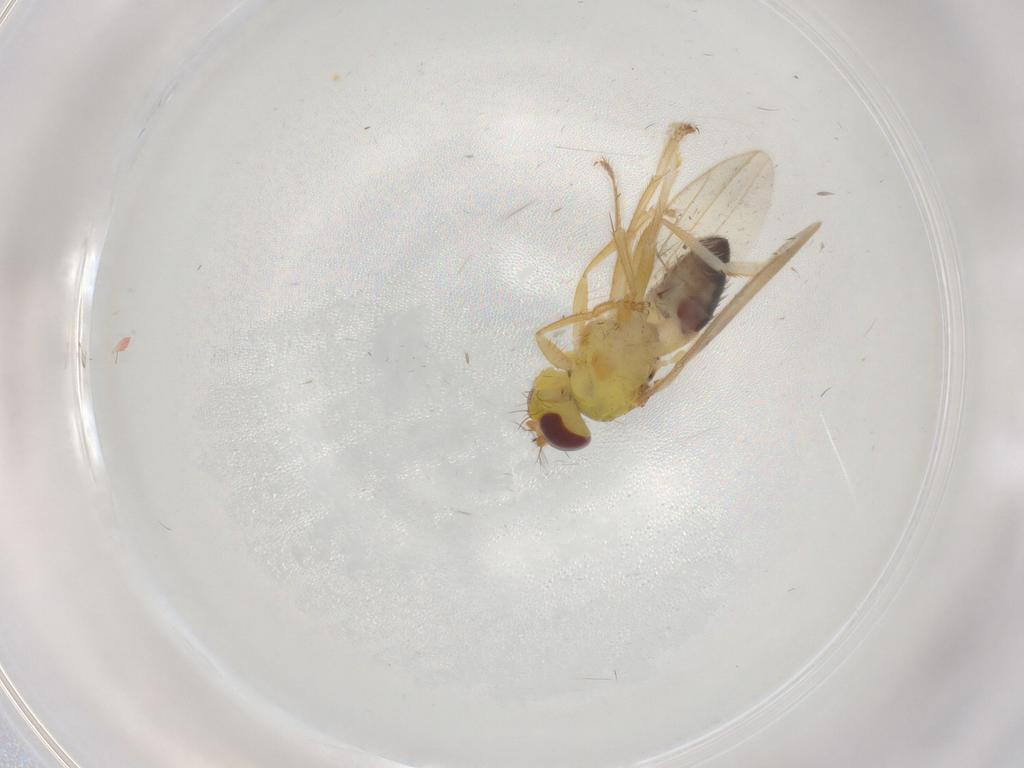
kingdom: Animalia
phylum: Arthropoda
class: Insecta
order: Diptera
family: Periscelididae
